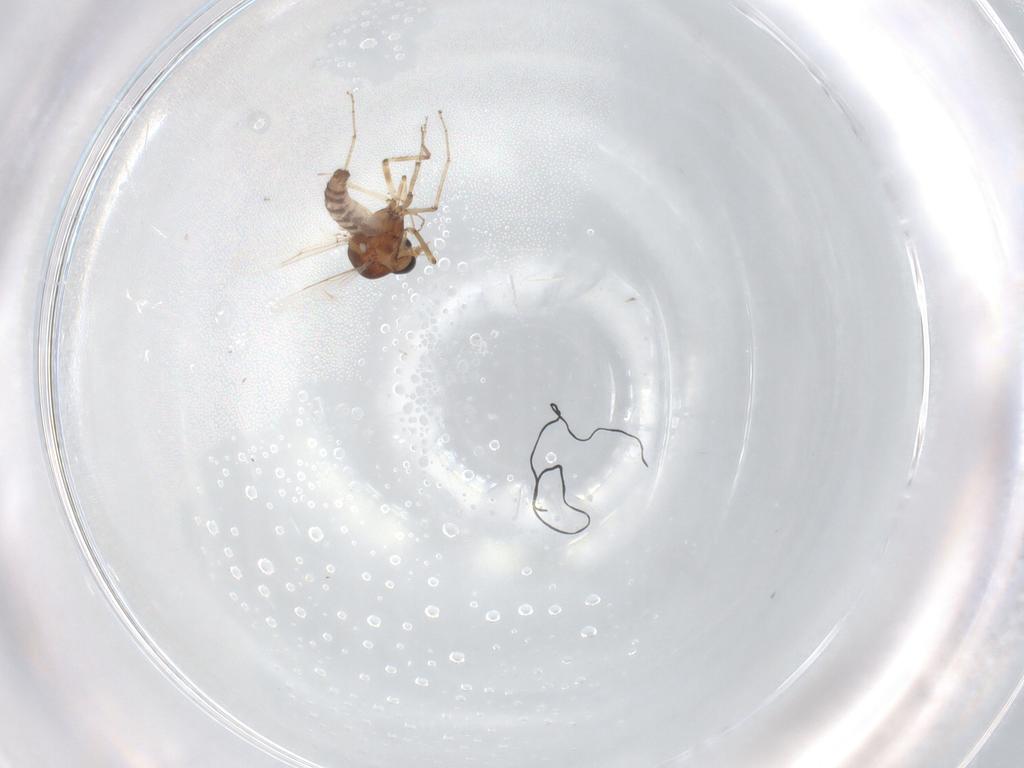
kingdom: Animalia
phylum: Arthropoda
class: Insecta
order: Diptera
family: Ceratopogonidae
